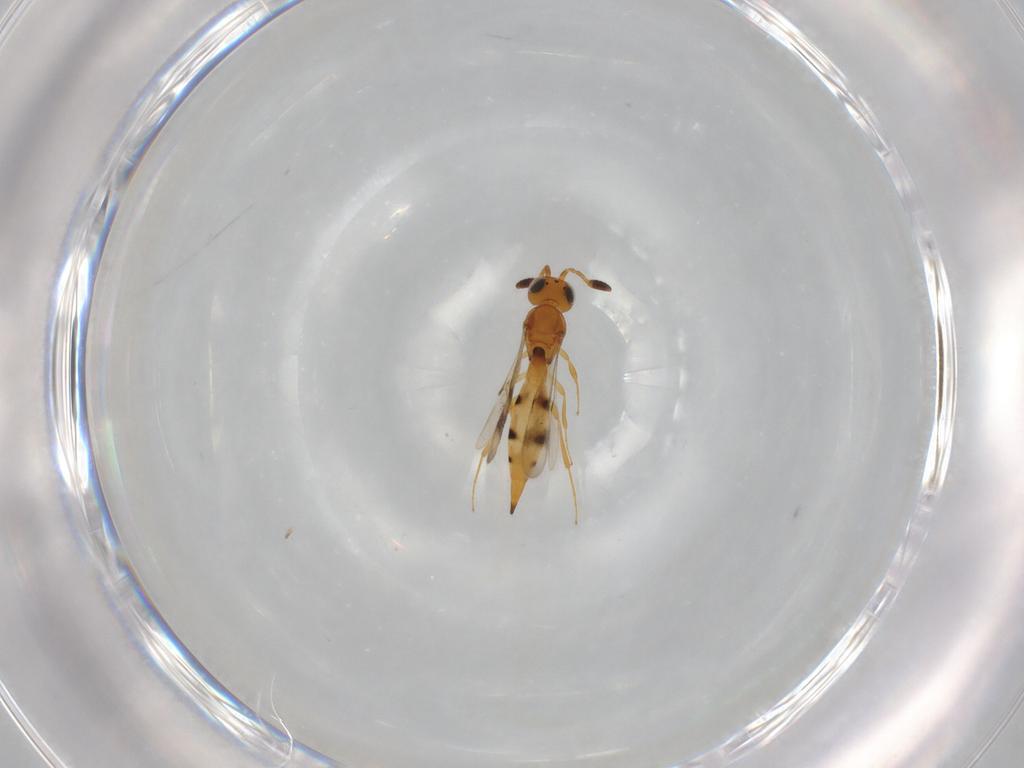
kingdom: Animalia
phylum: Arthropoda
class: Insecta
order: Hymenoptera
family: Scelionidae
